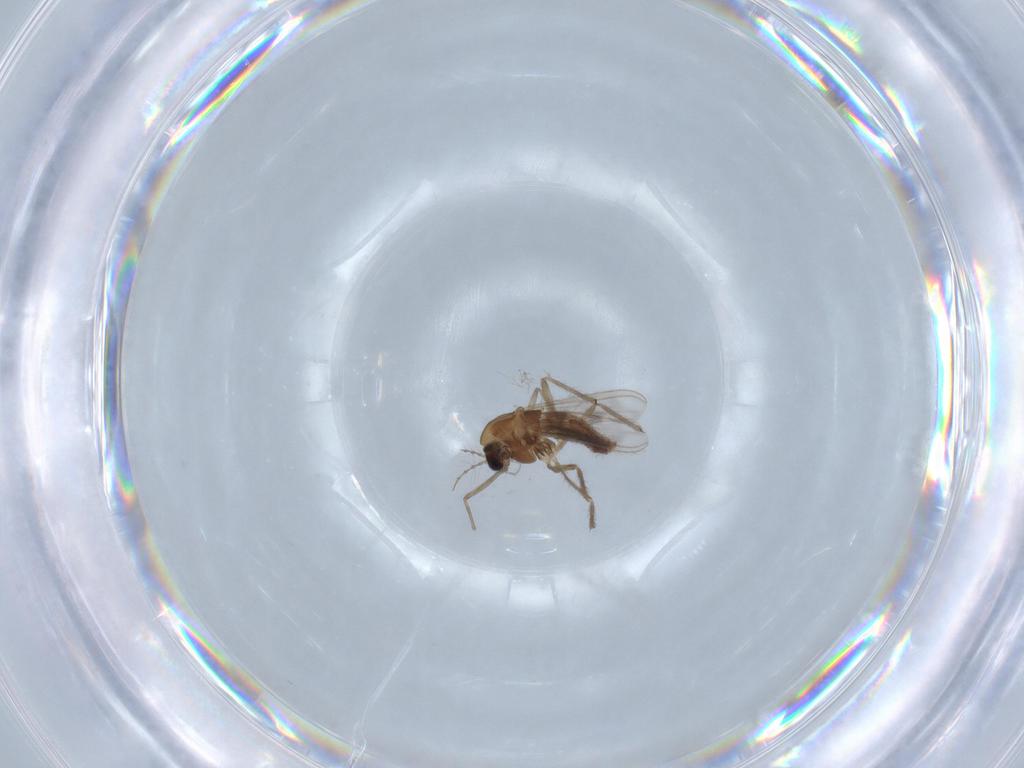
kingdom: Animalia
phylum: Arthropoda
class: Insecta
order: Diptera
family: Chironomidae
